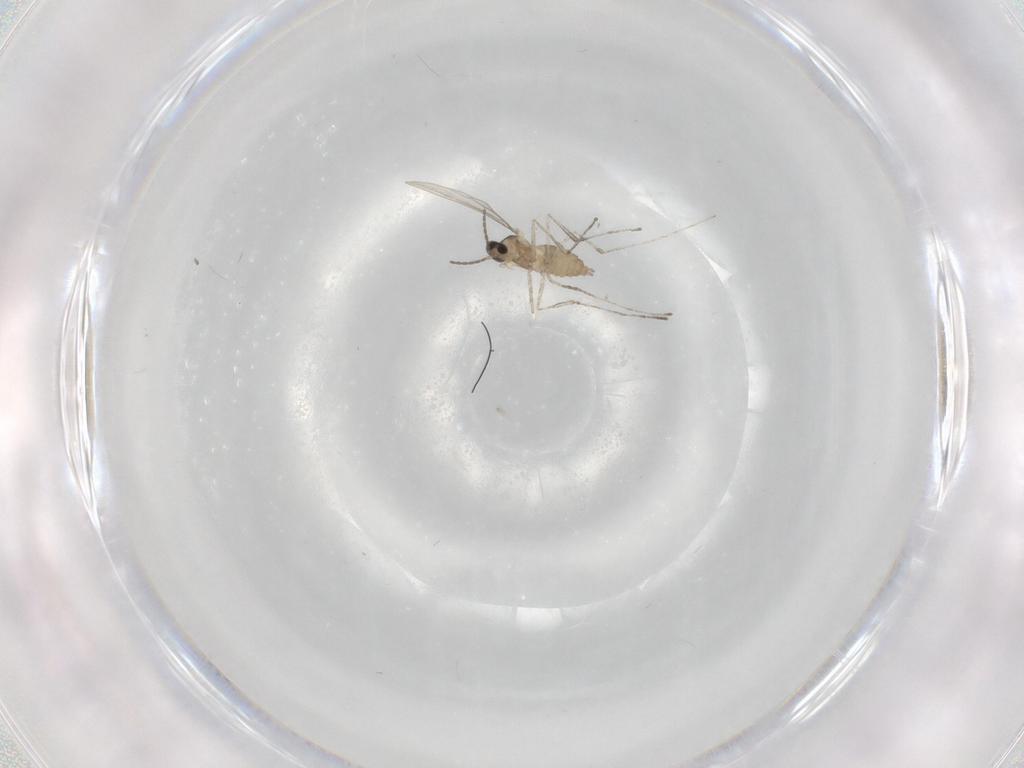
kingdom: Animalia
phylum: Arthropoda
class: Insecta
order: Diptera
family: Cecidomyiidae
